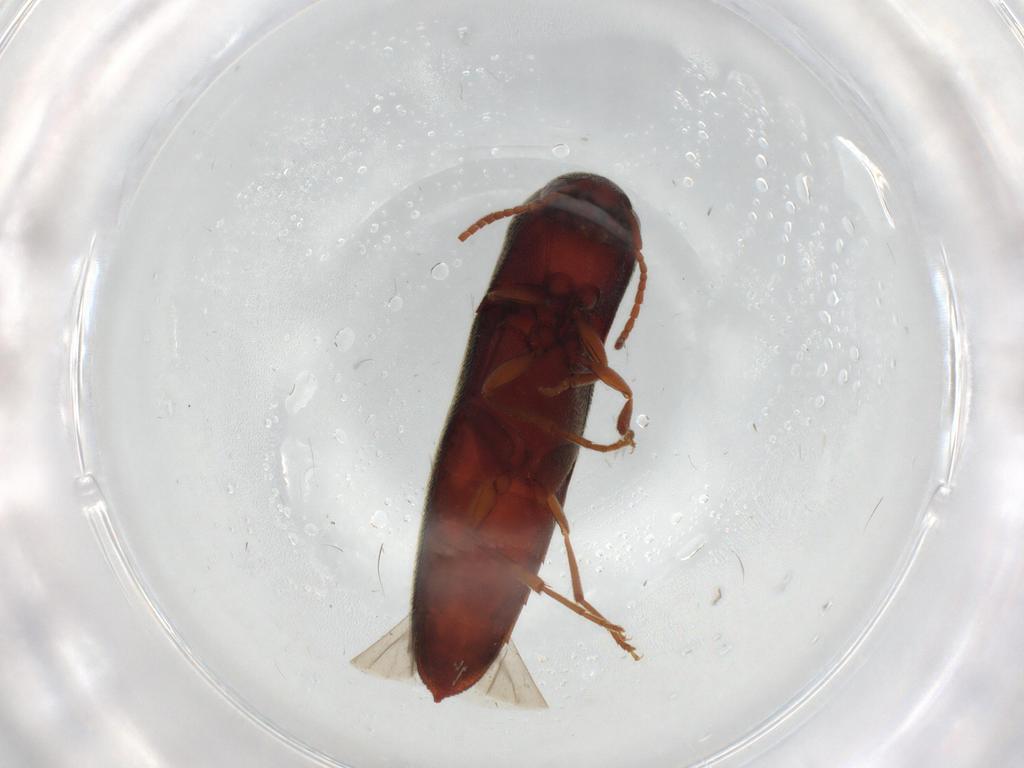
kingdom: Animalia
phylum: Arthropoda
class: Insecta
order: Coleoptera
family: Eucnemidae
